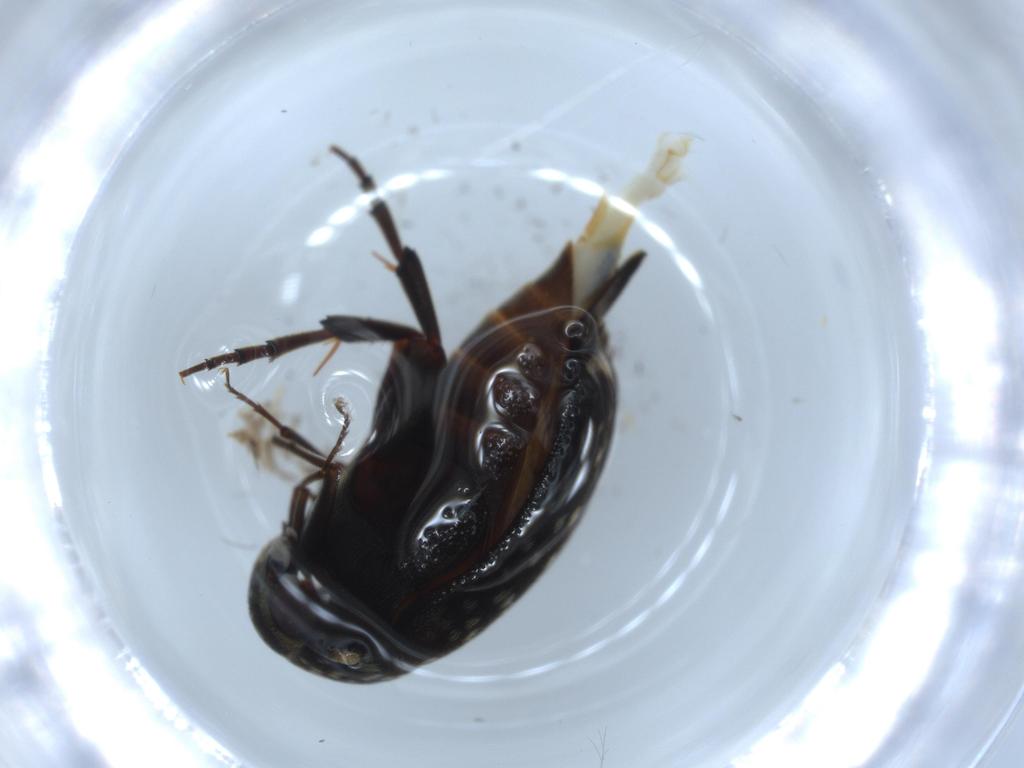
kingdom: Animalia
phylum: Arthropoda
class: Insecta
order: Coleoptera
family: Mordellidae
